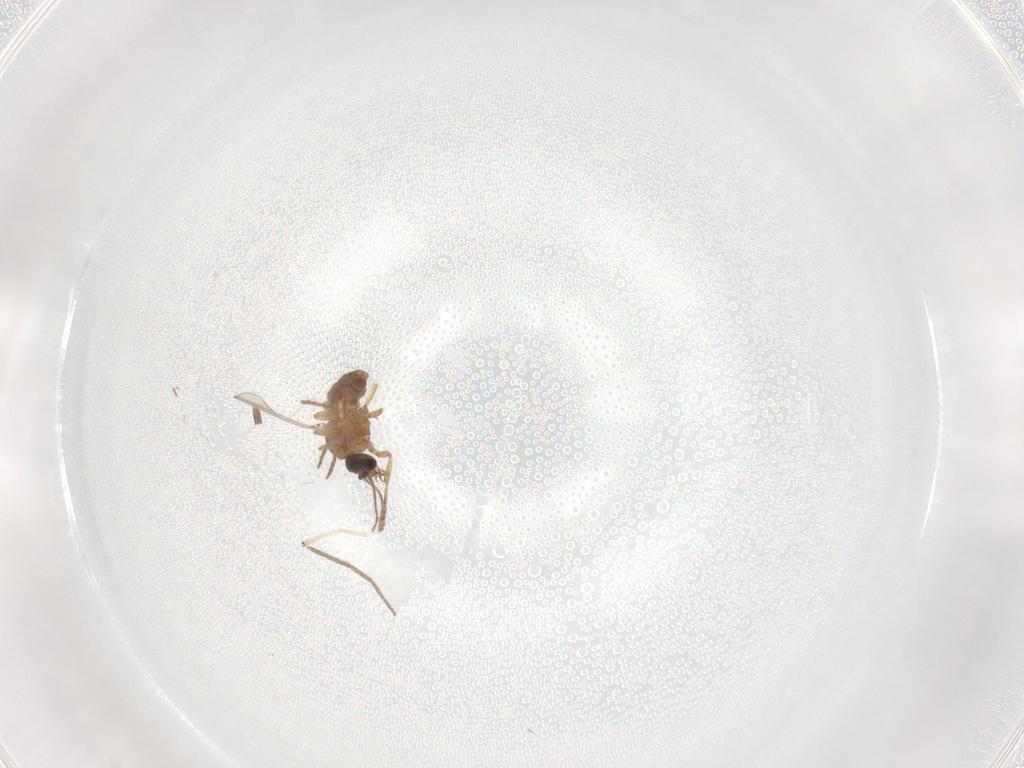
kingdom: Animalia
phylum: Arthropoda
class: Insecta
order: Diptera
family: Chironomidae
